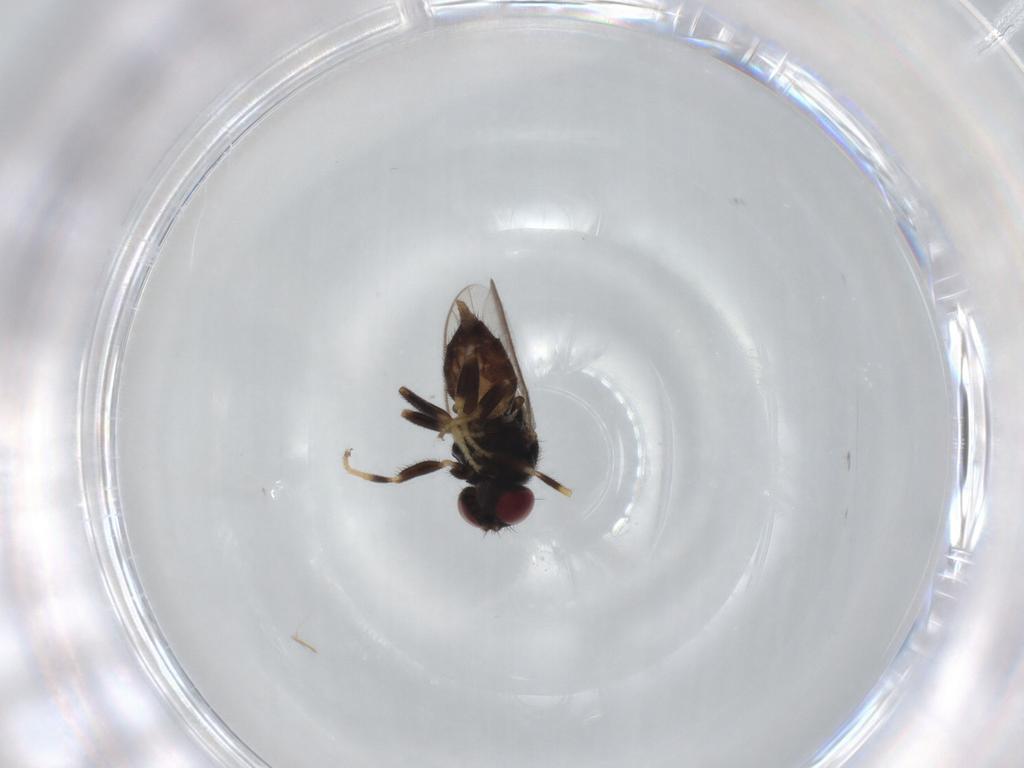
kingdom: Animalia
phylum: Arthropoda
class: Insecta
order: Diptera
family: Chloropidae
